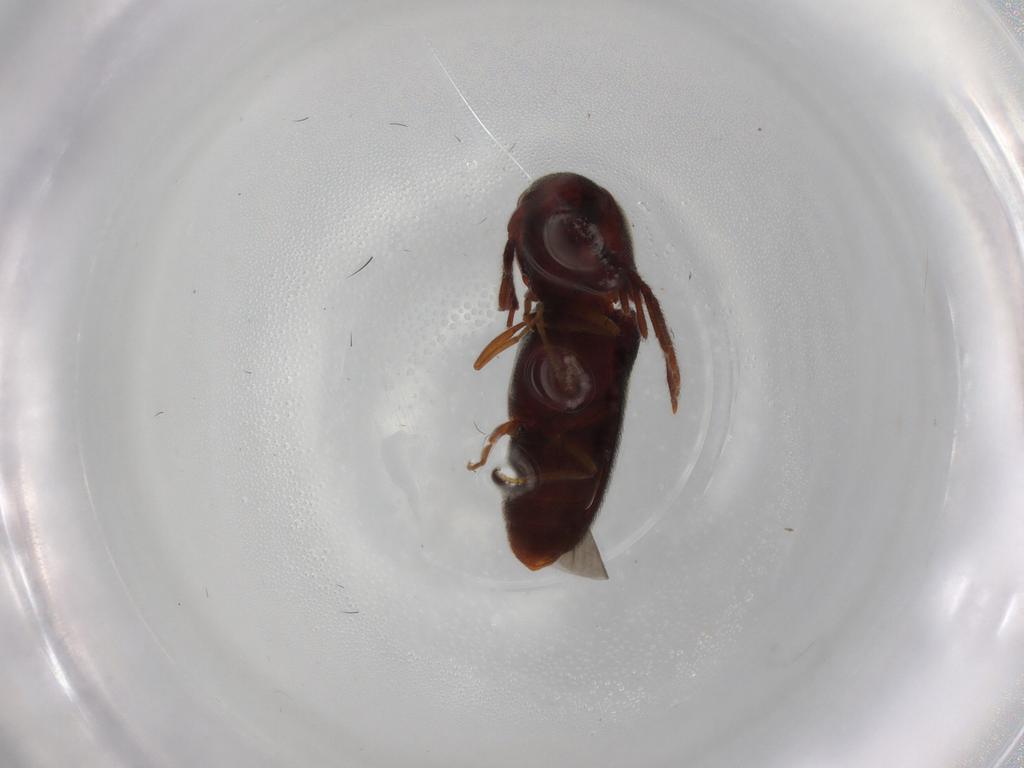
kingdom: Animalia
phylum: Arthropoda
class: Insecta
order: Coleoptera
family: Eucnemidae
